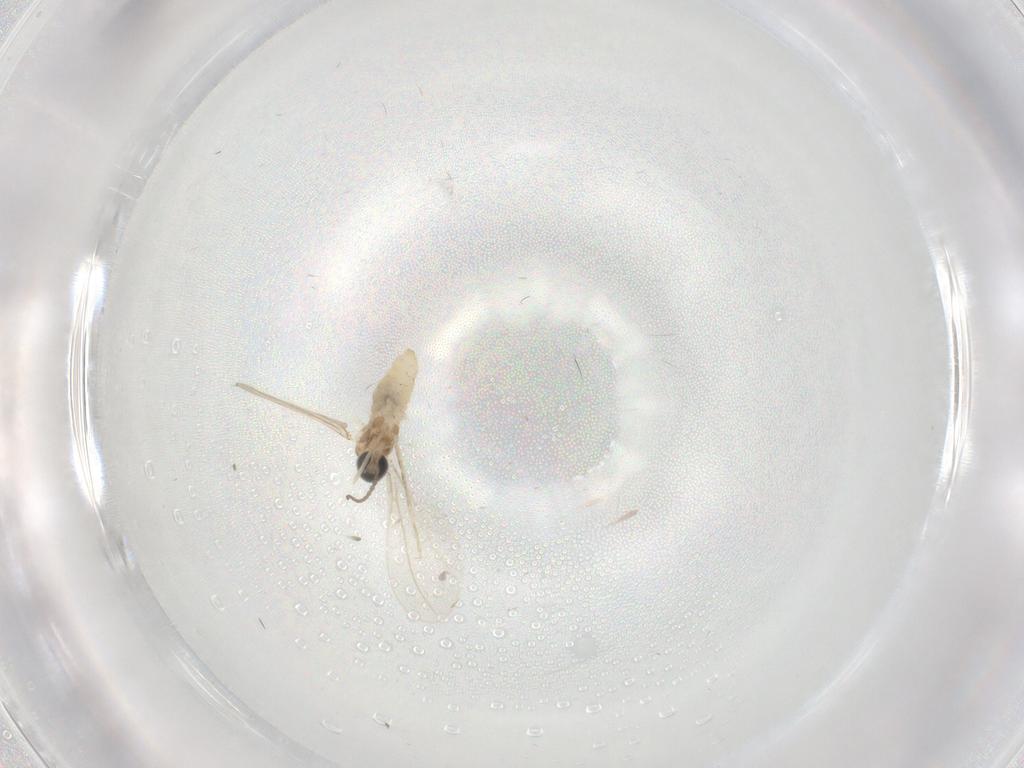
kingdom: Animalia
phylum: Arthropoda
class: Insecta
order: Diptera
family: Cecidomyiidae
